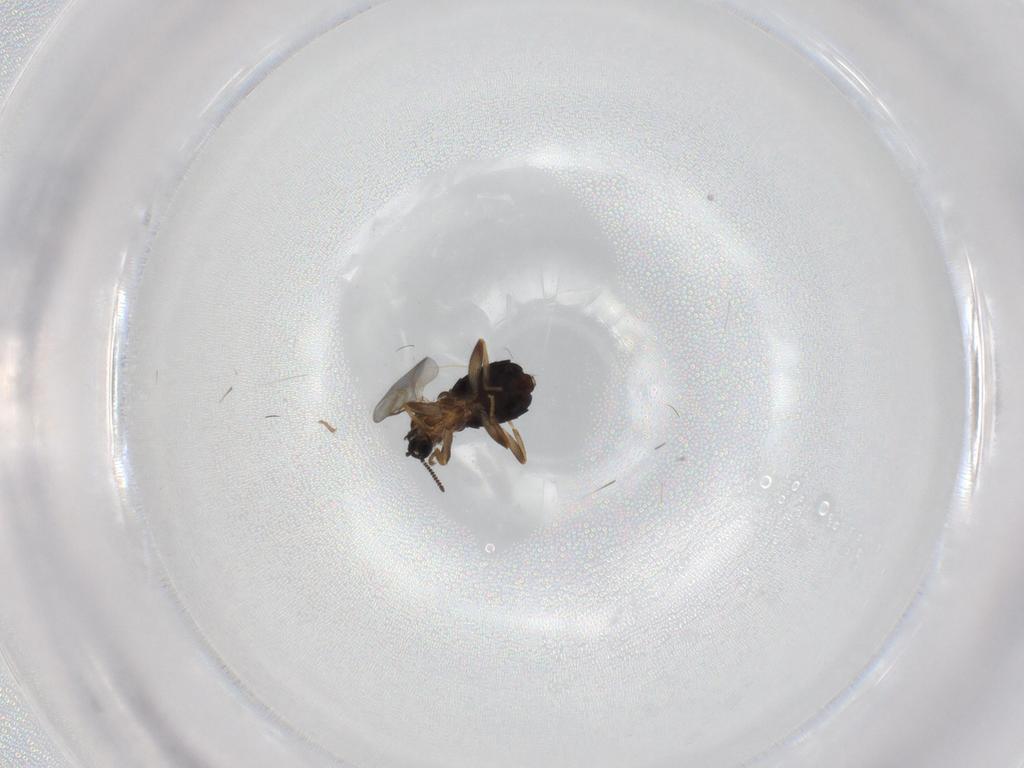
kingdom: Animalia
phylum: Arthropoda
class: Insecta
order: Diptera
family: Scatopsidae
